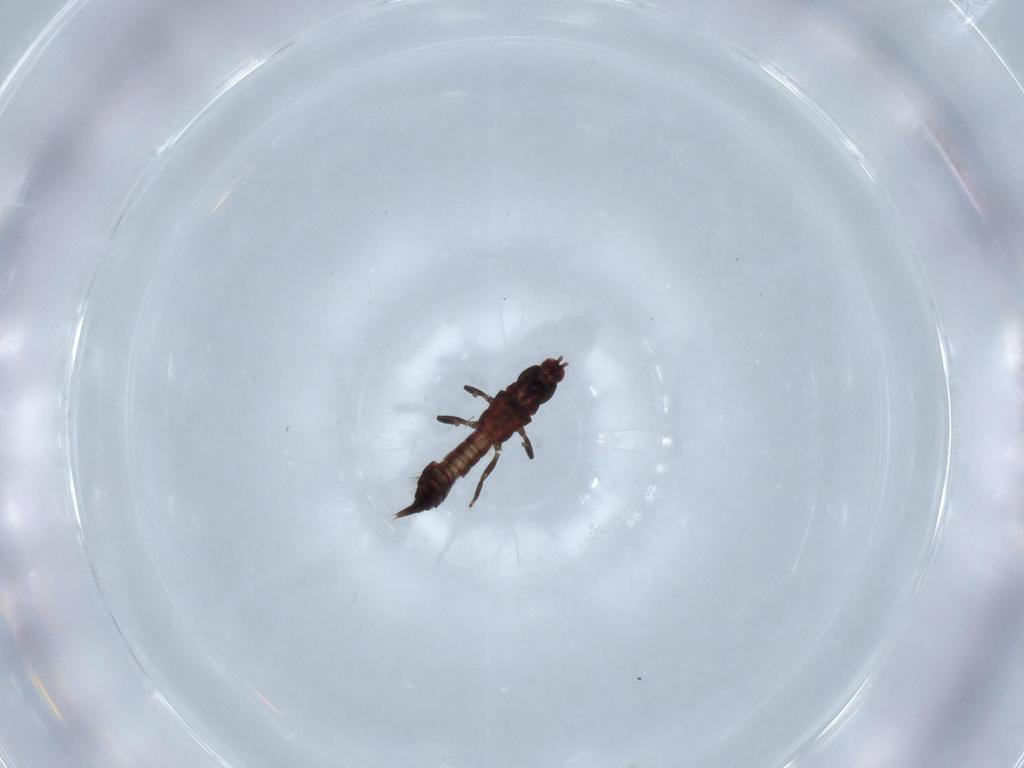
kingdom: Animalia
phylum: Arthropoda
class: Insecta
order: Thysanoptera
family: Phlaeothripidae
